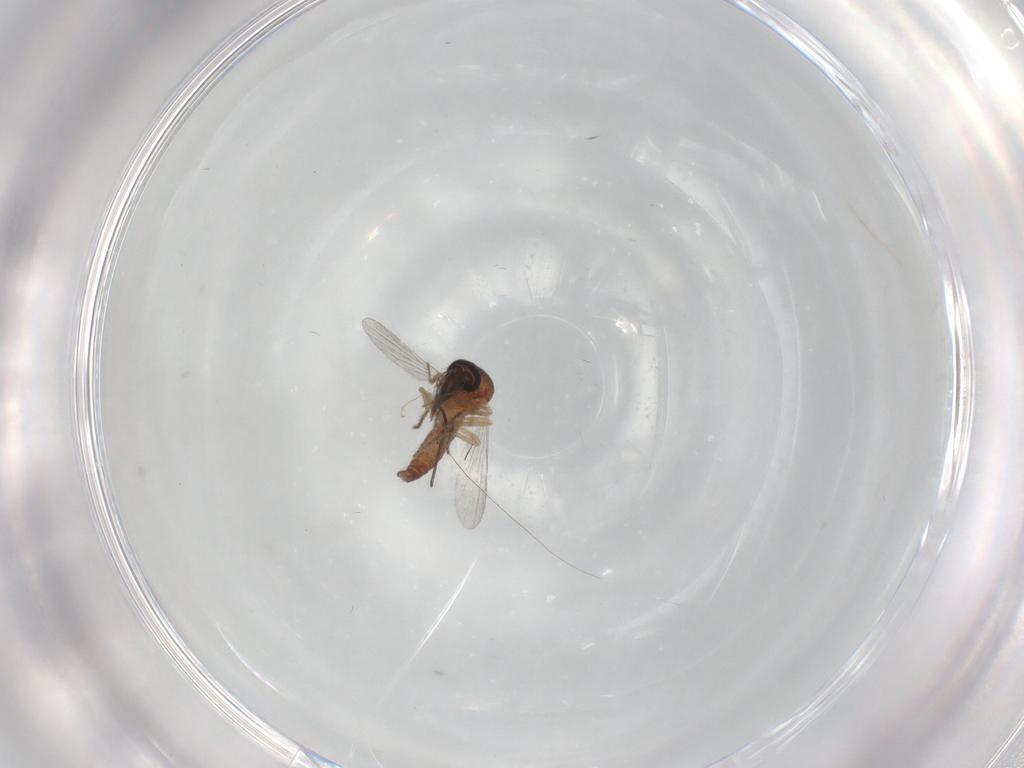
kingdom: Animalia
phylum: Arthropoda
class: Insecta
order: Diptera
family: Ceratopogonidae
